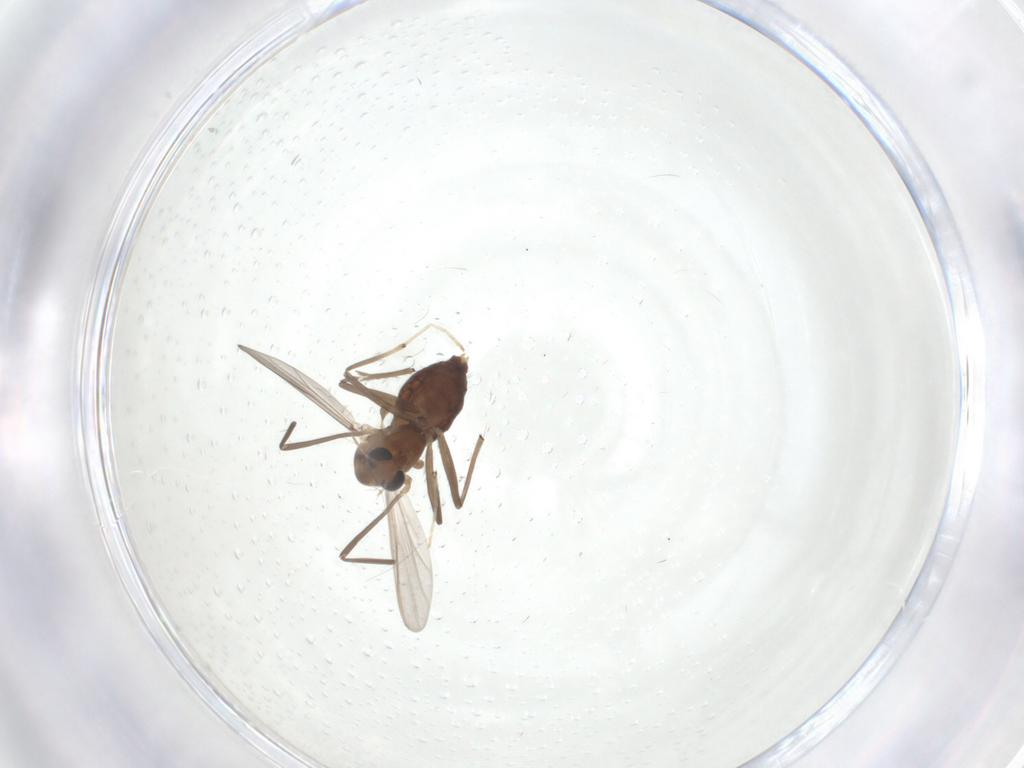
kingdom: Animalia
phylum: Arthropoda
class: Insecta
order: Diptera
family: Chironomidae
